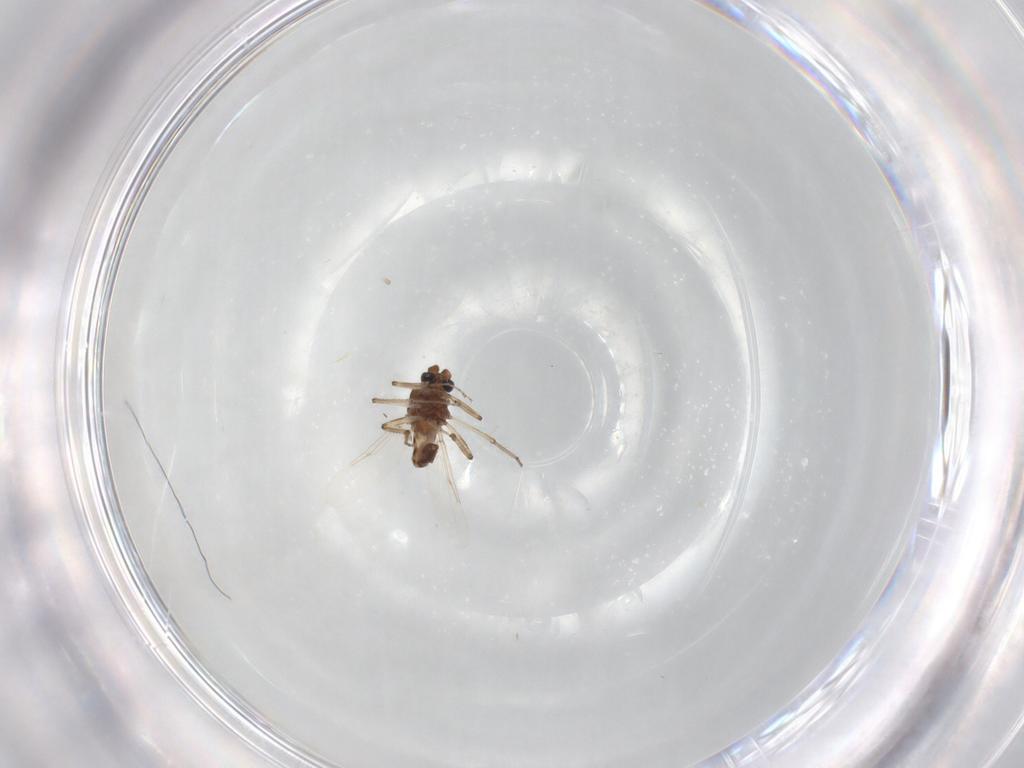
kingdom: Animalia
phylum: Arthropoda
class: Insecta
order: Diptera
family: Ceratopogonidae
